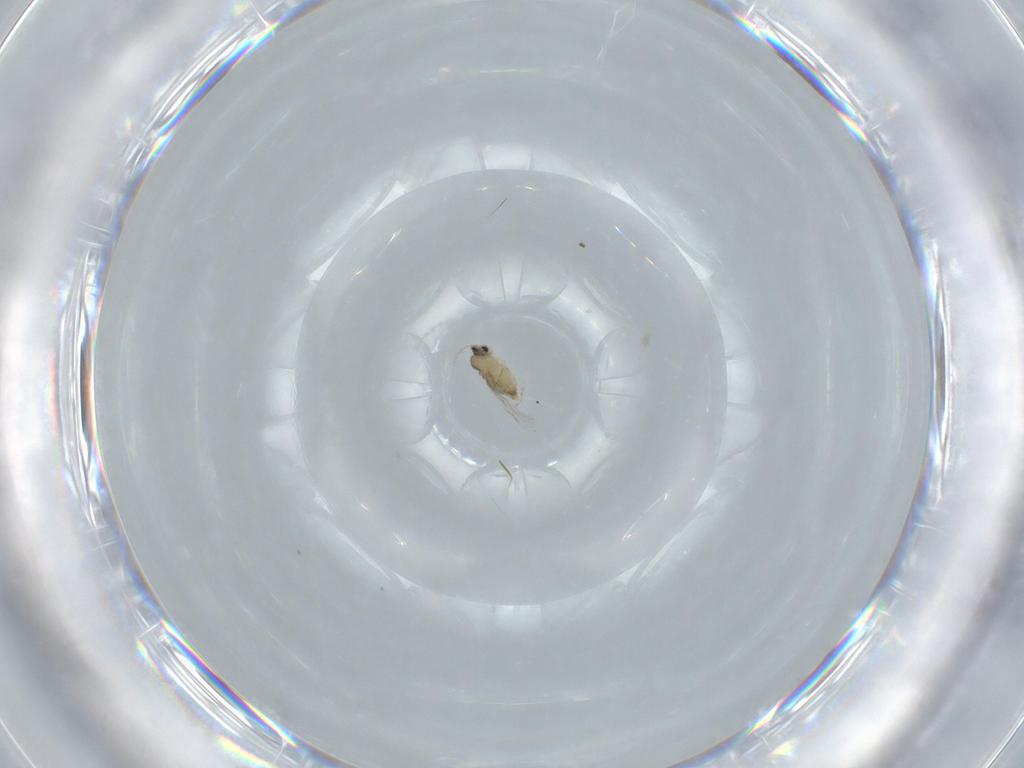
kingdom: Animalia
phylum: Arthropoda
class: Insecta
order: Diptera
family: Cecidomyiidae
